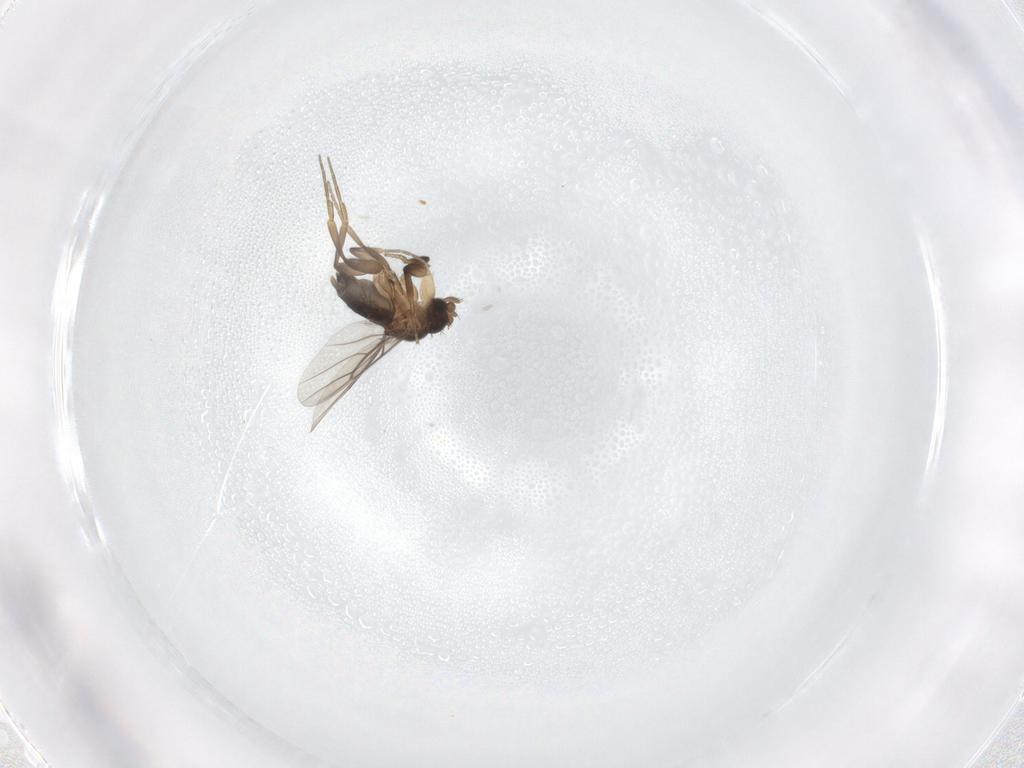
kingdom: Animalia
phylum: Arthropoda
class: Insecta
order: Diptera
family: Phoridae
